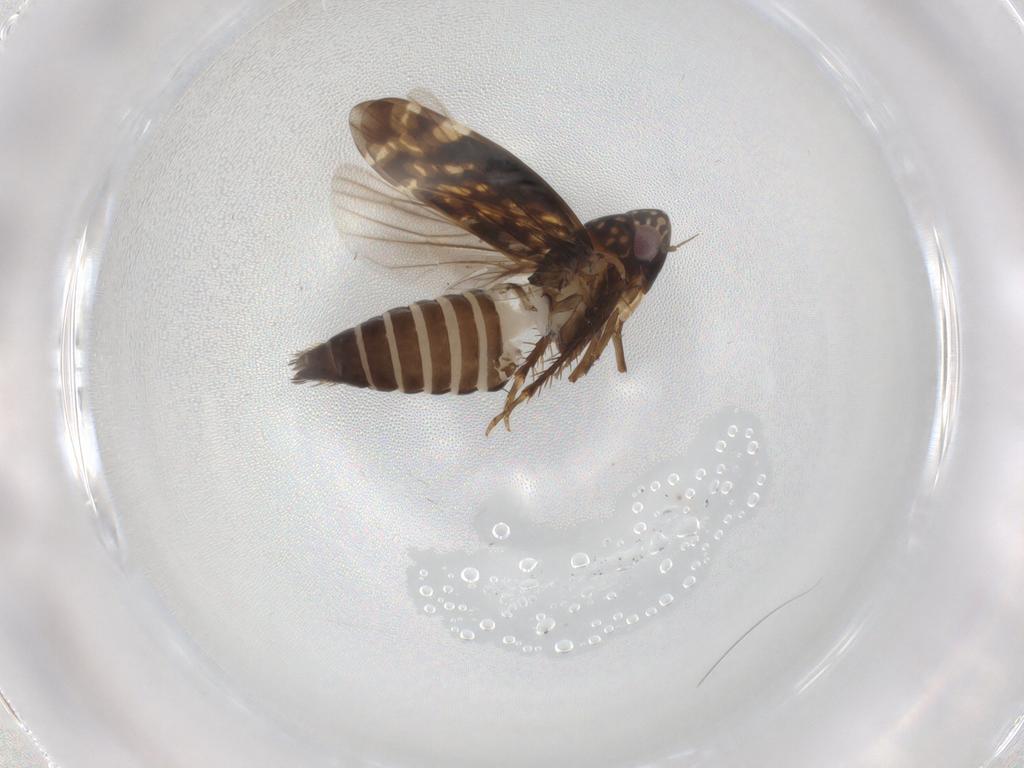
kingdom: Animalia
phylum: Arthropoda
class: Insecta
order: Hemiptera
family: Cicadellidae
